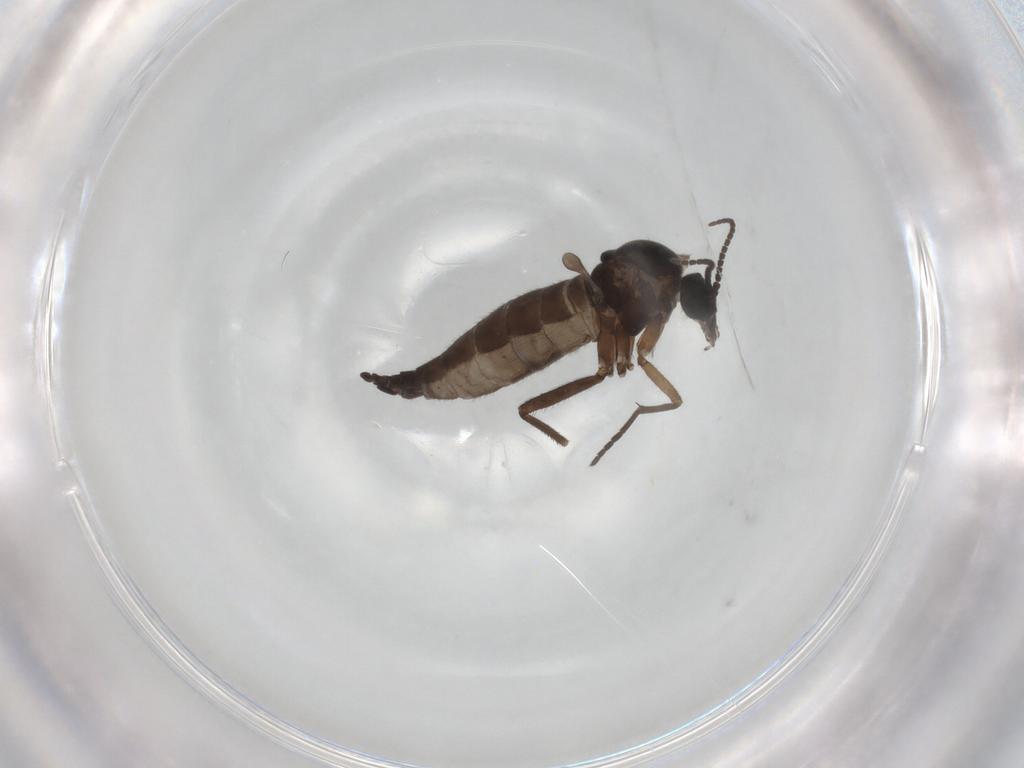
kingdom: Animalia
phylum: Arthropoda
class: Insecta
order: Diptera
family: Sciaridae
